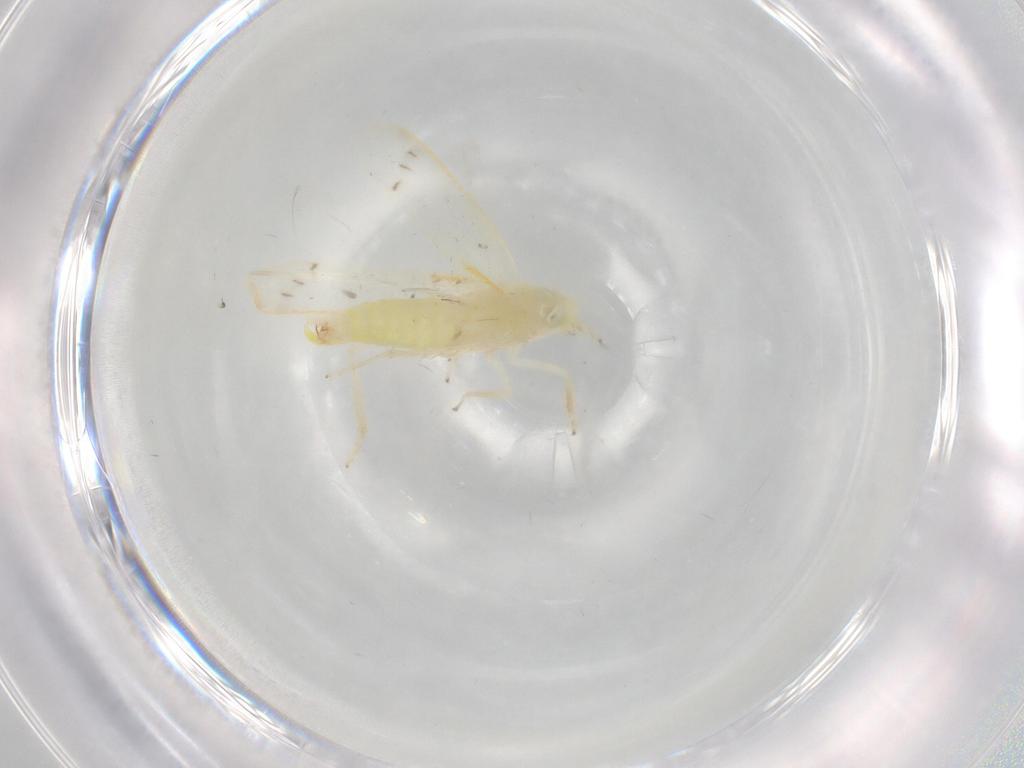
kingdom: Animalia
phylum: Arthropoda
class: Insecta
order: Hemiptera
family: Cicadellidae
